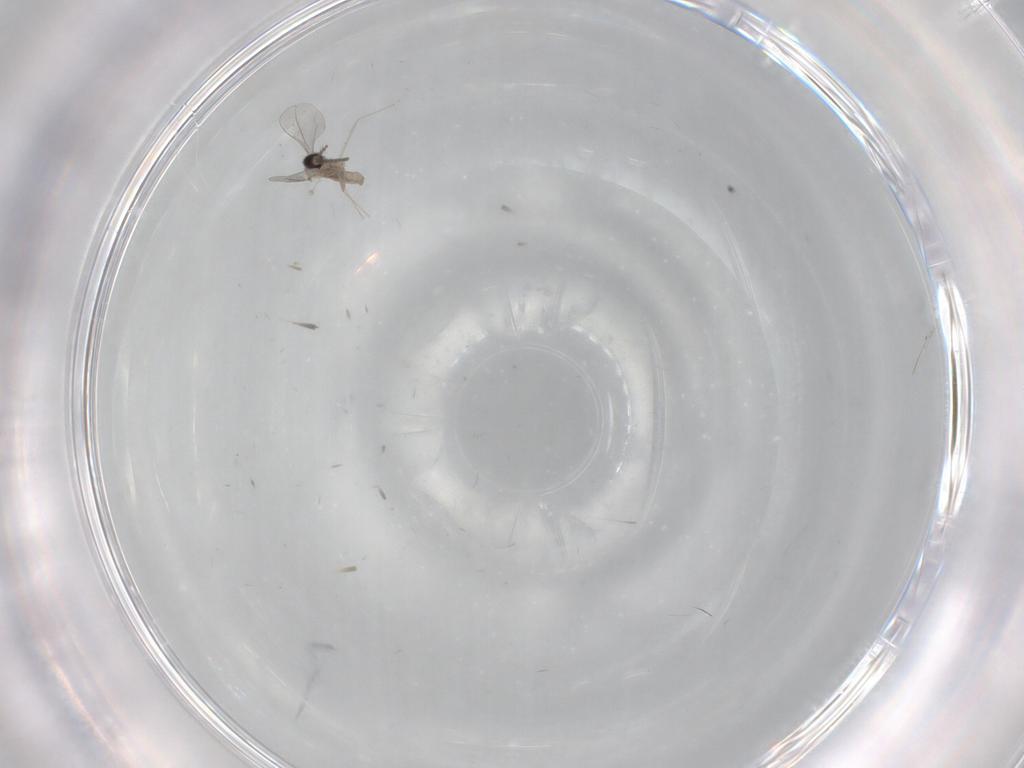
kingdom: Animalia
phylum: Arthropoda
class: Insecta
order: Diptera
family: Cecidomyiidae
